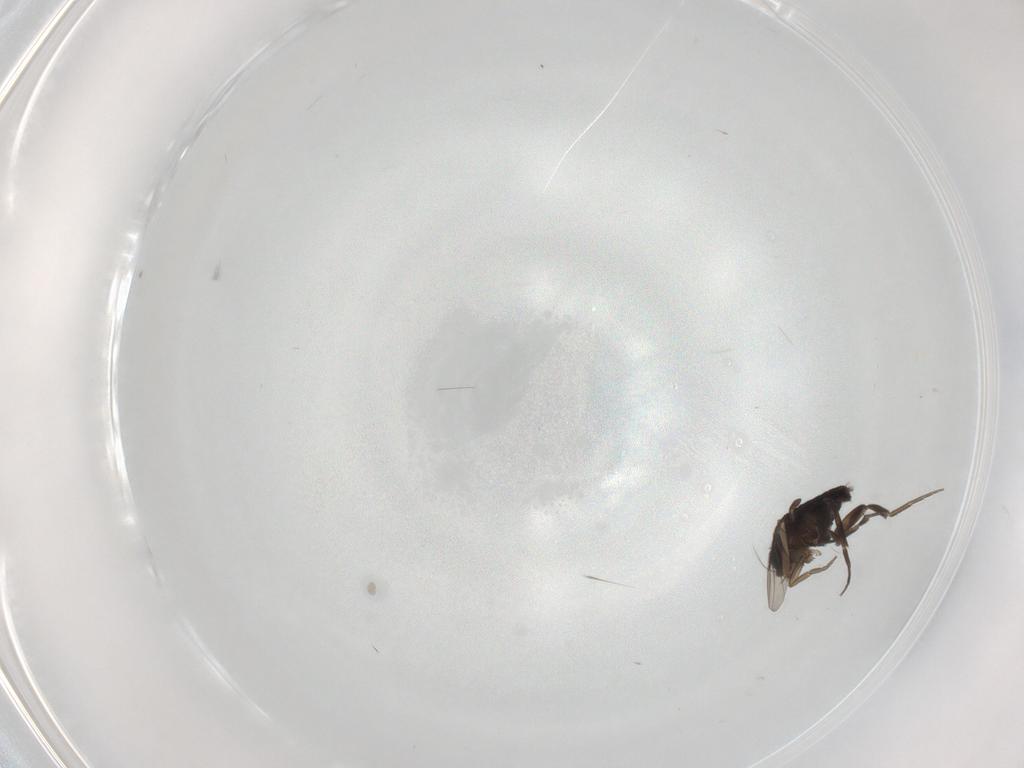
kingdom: Animalia
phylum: Arthropoda
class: Insecta
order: Diptera
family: Phoridae
